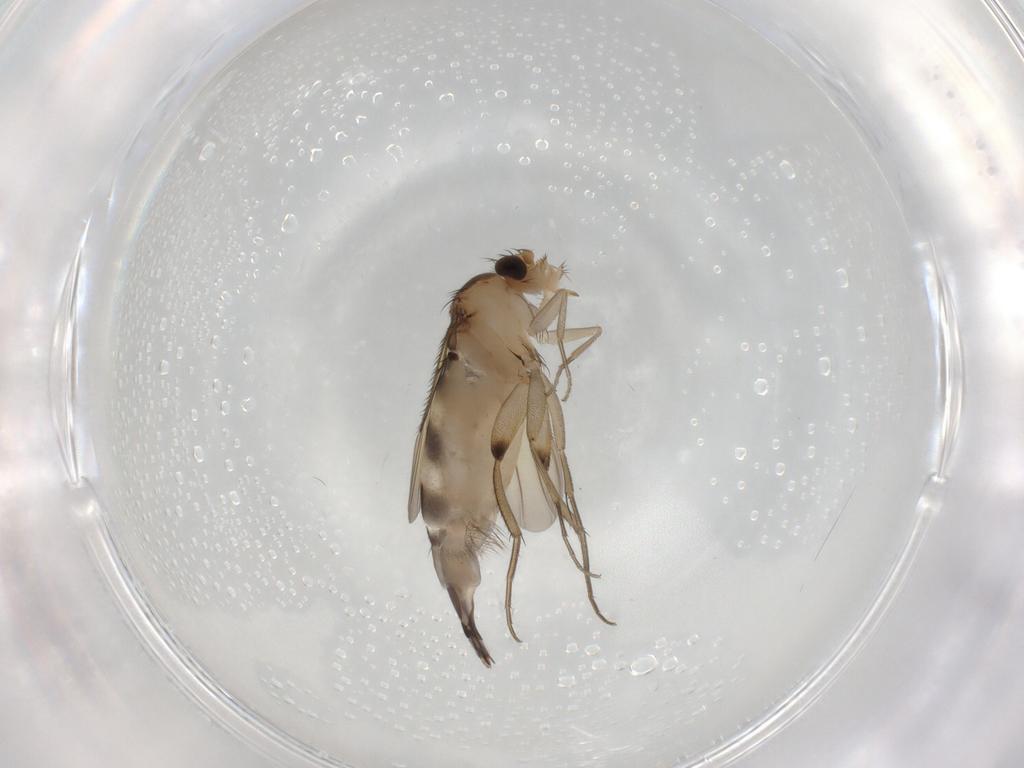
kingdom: Animalia
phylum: Arthropoda
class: Insecta
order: Diptera
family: Phoridae
